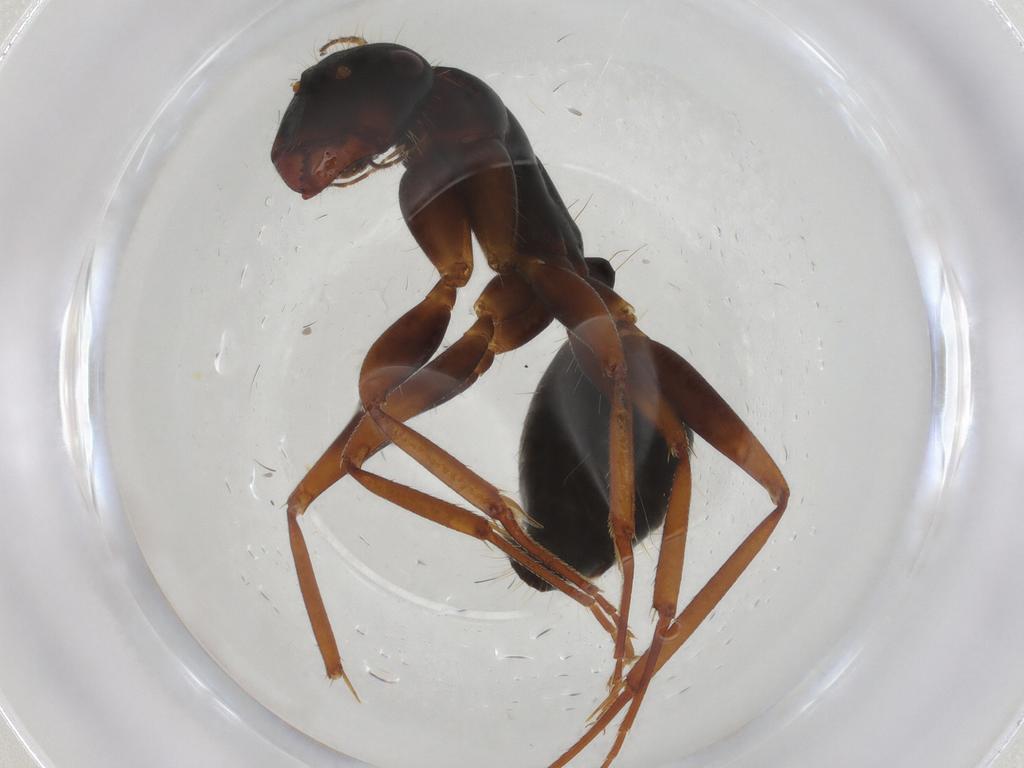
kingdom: Animalia
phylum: Arthropoda
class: Insecta
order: Hymenoptera
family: Formicidae
